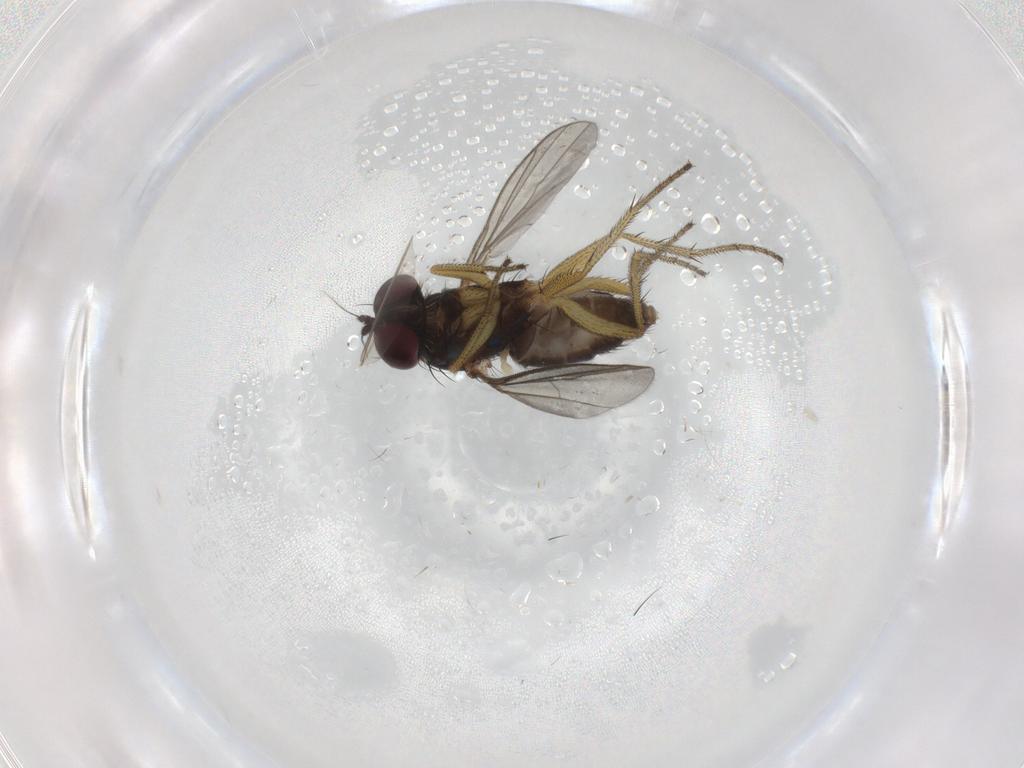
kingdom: Animalia
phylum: Arthropoda
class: Insecta
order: Diptera
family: Dolichopodidae
